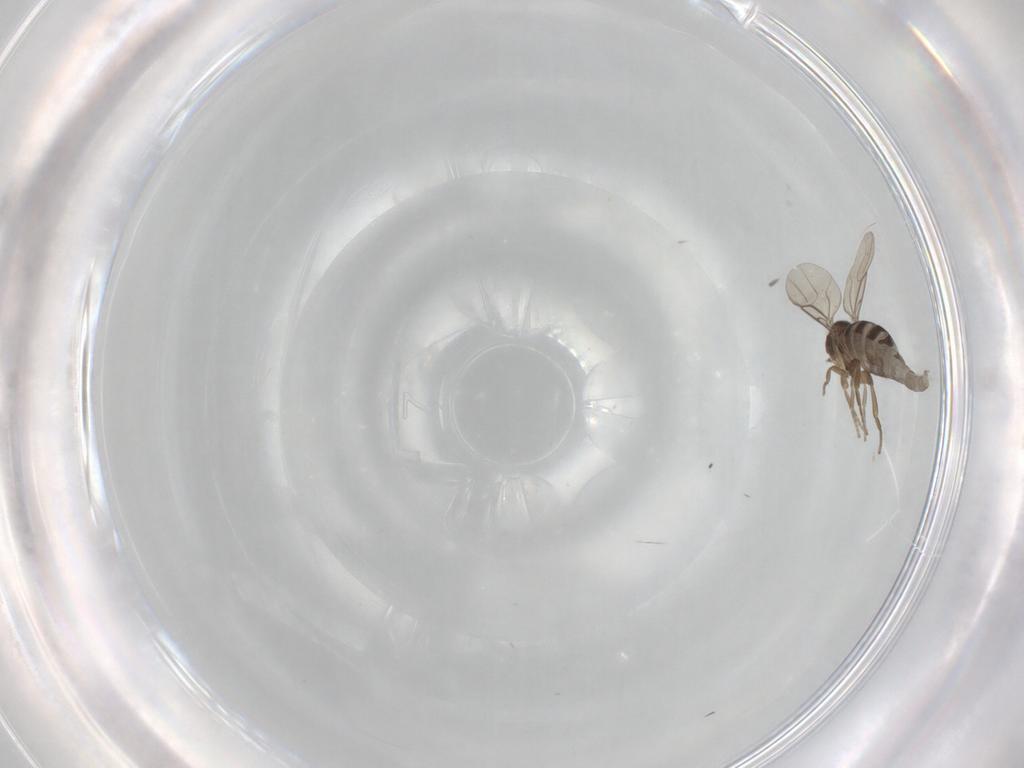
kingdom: Animalia
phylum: Arthropoda
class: Insecta
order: Diptera
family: Phoridae
